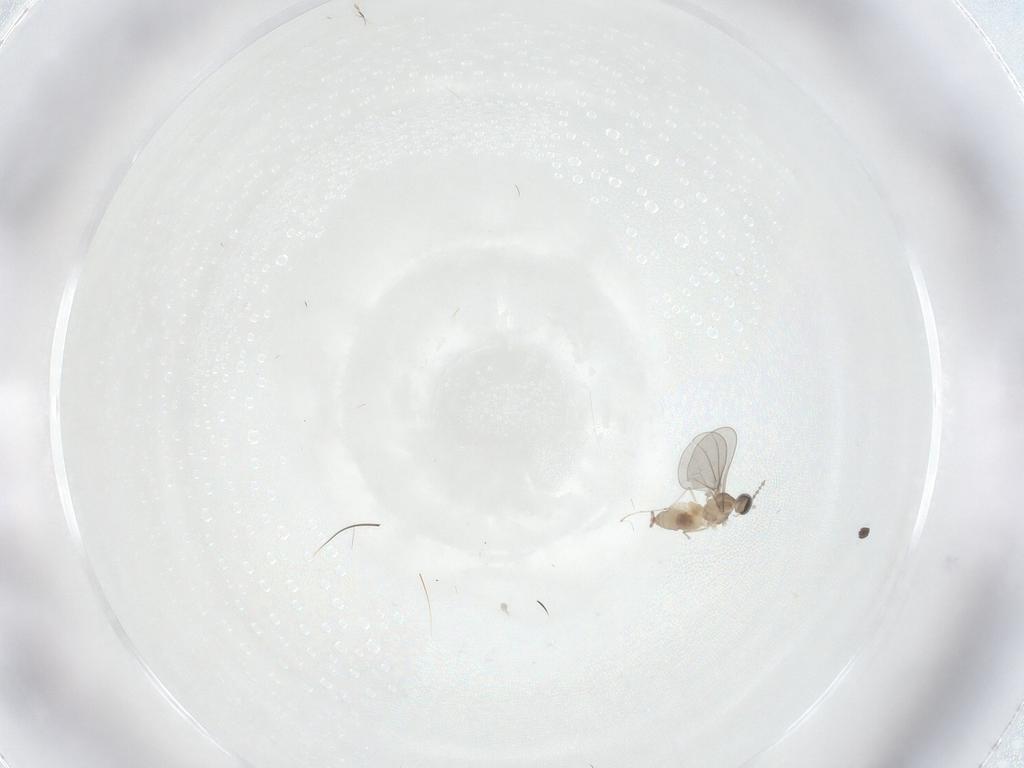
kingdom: Animalia
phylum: Arthropoda
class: Insecta
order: Diptera
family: Cecidomyiidae
